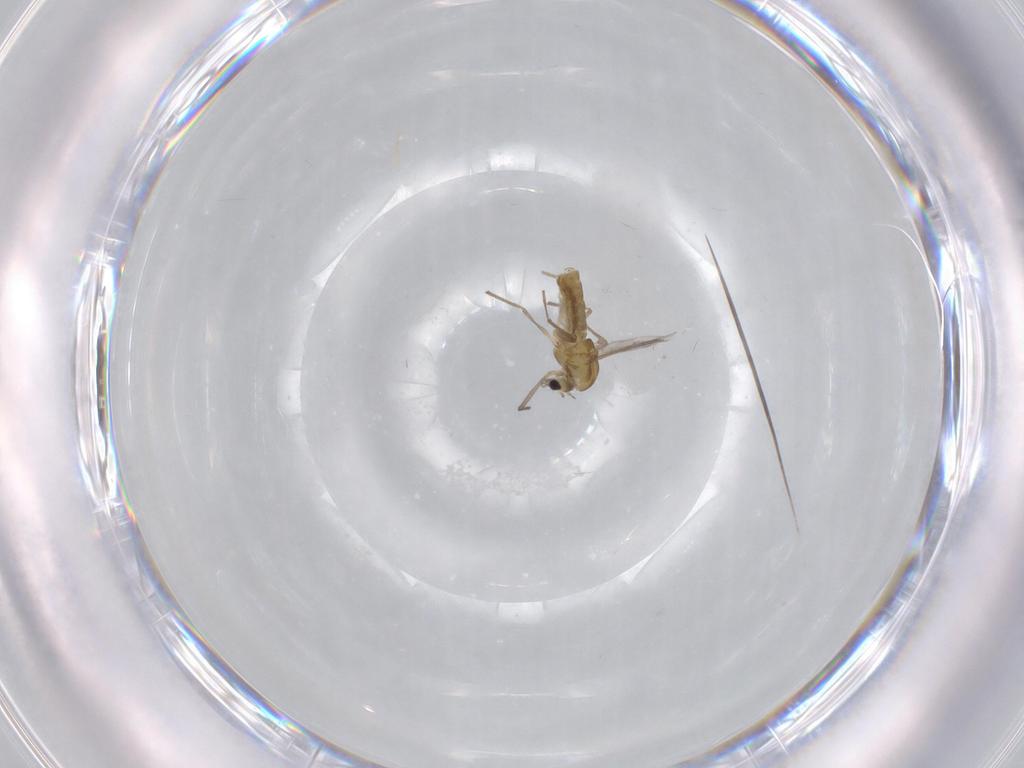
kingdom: Animalia
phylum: Arthropoda
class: Insecta
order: Diptera
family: Chironomidae
